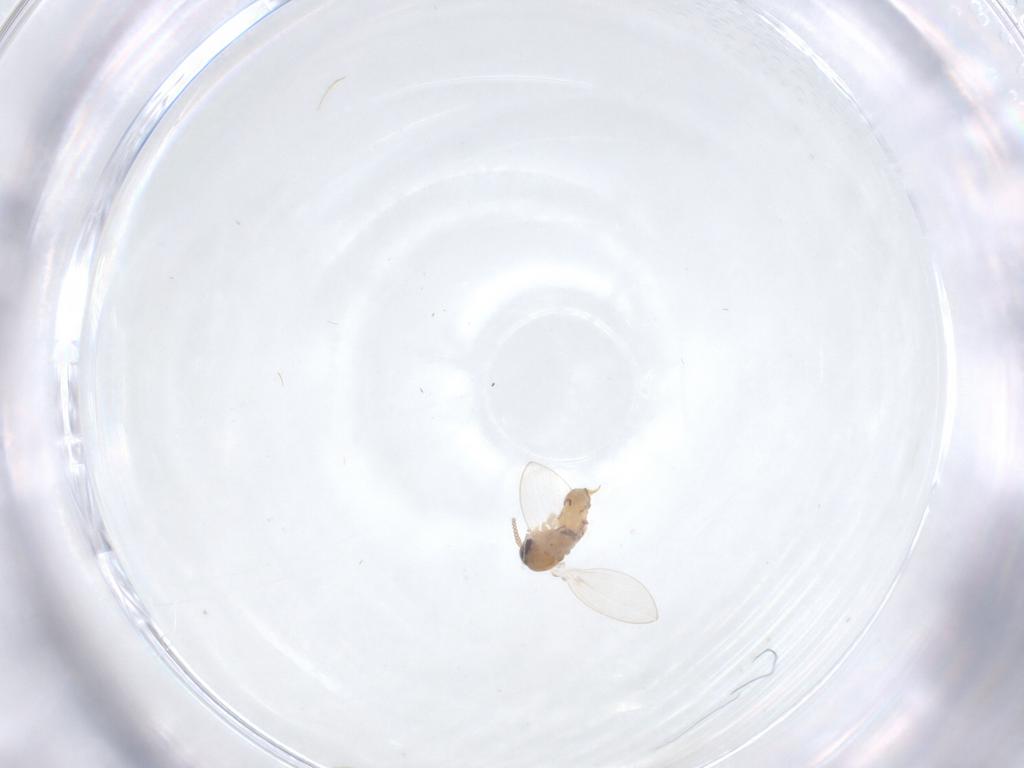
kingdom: Animalia
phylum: Arthropoda
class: Insecta
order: Diptera
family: Psychodidae
